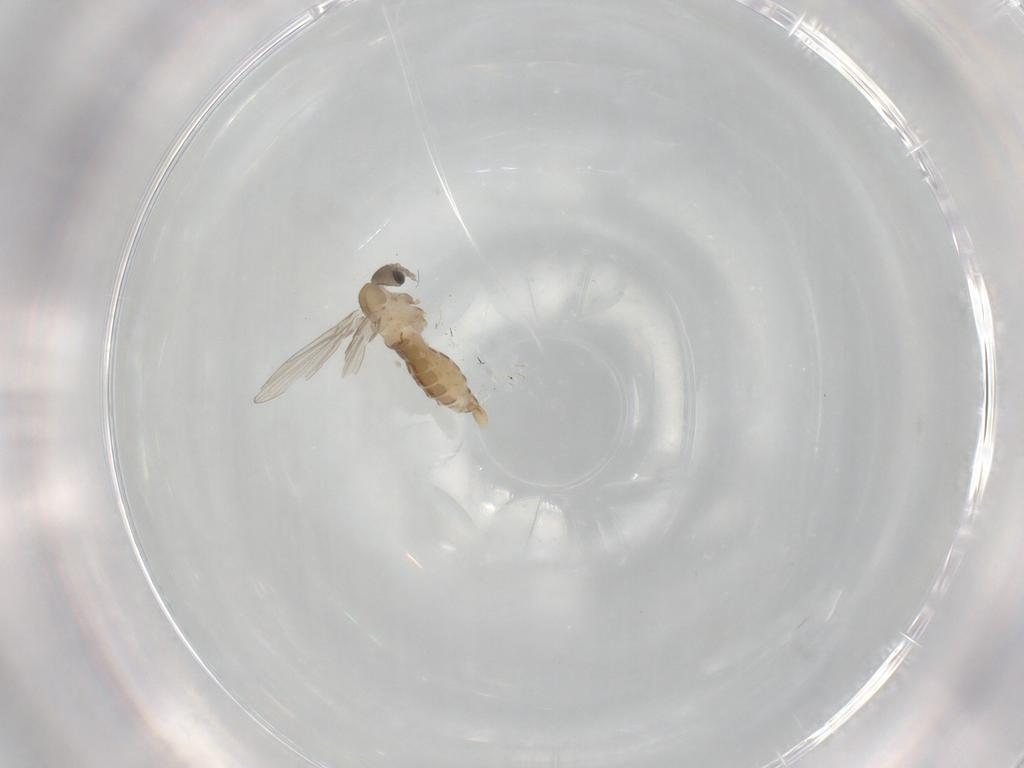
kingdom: Animalia
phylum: Arthropoda
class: Insecta
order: Diptera
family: Psychodidae
